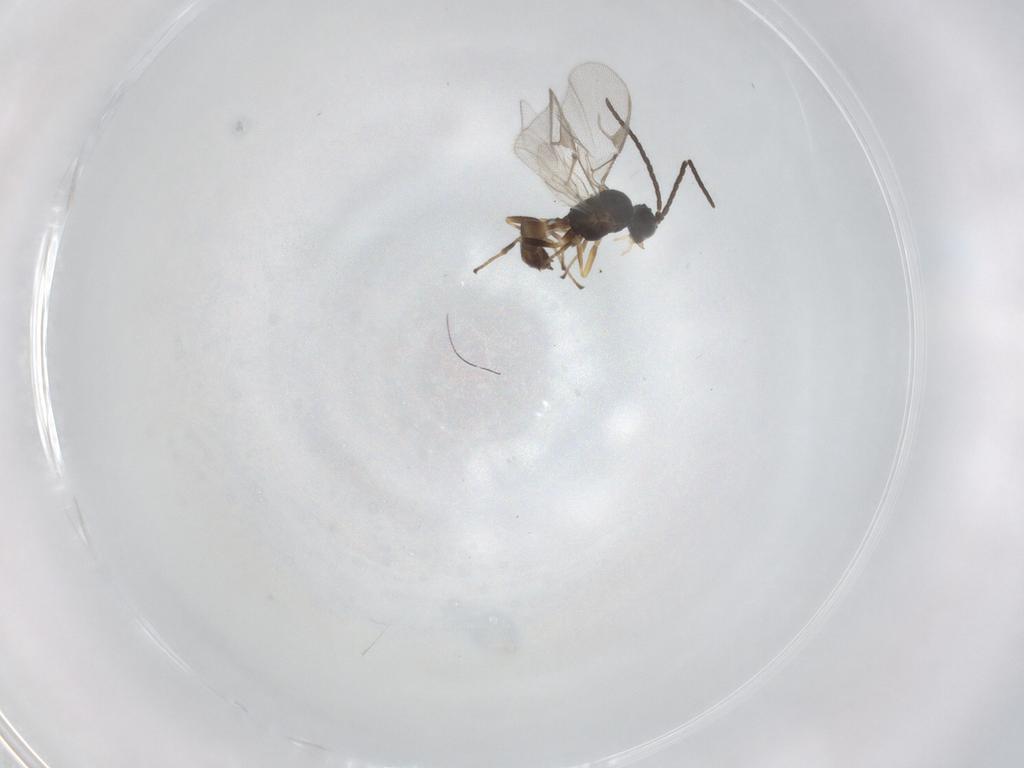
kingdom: Animalia
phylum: Arthropoda
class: Insecta
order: Hymenoptera
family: Braconidae
